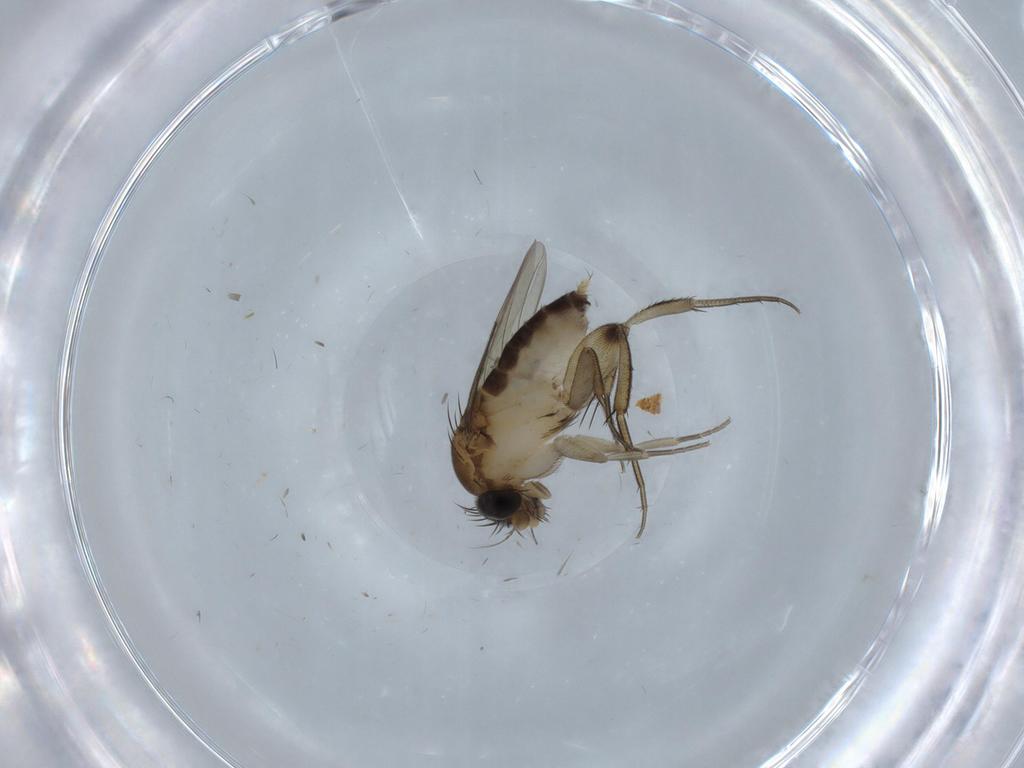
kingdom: Animalia
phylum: Arthropoda
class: Insecta
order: Diptera
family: Phoridae
